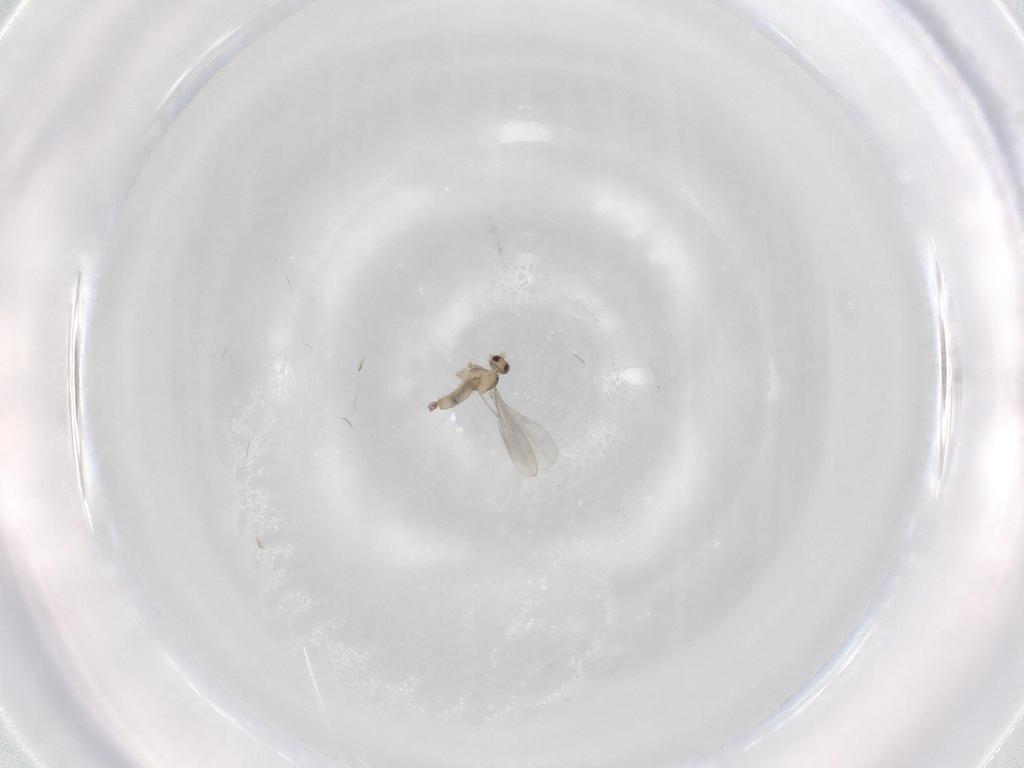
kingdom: Animalia
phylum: Arthropoda
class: Insecta
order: Diptera
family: Cecidomyiidae
